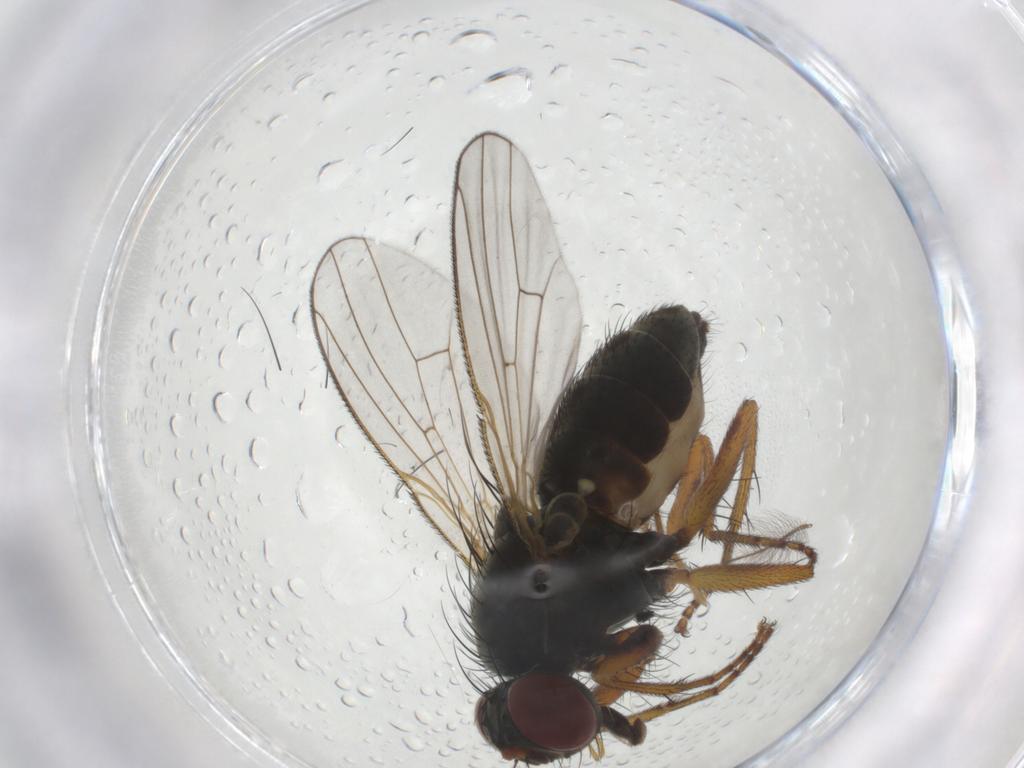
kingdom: Animalia
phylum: Arthropoda
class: Insecta
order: Diptera
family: Muscidae
